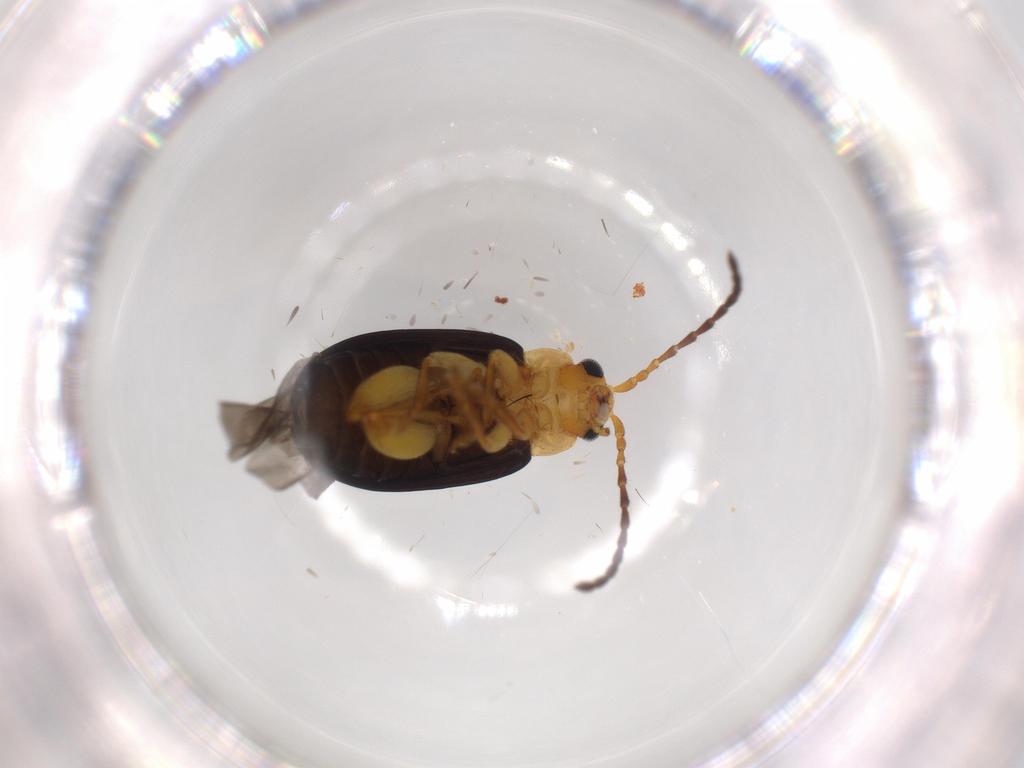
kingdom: Animalia
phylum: Arthropoda
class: Insecta
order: Coleoptera
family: Chrysomelidae
